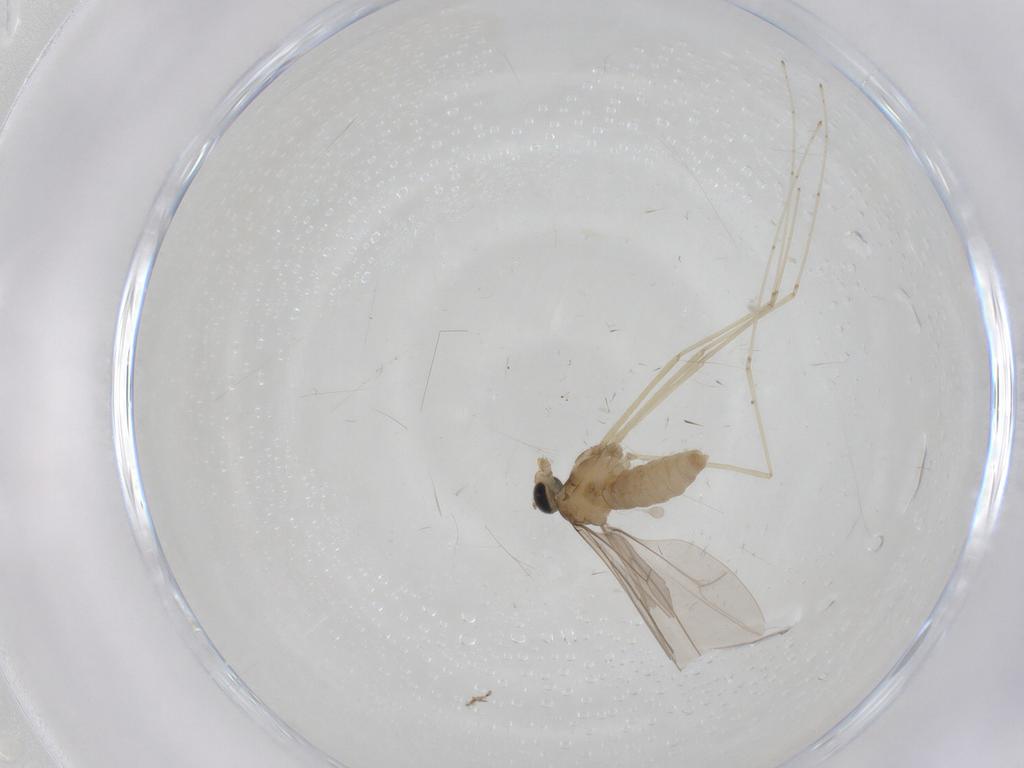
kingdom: Animalia
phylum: Arthropoda
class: Insecta
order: Diptera
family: Cecidomyiidae
